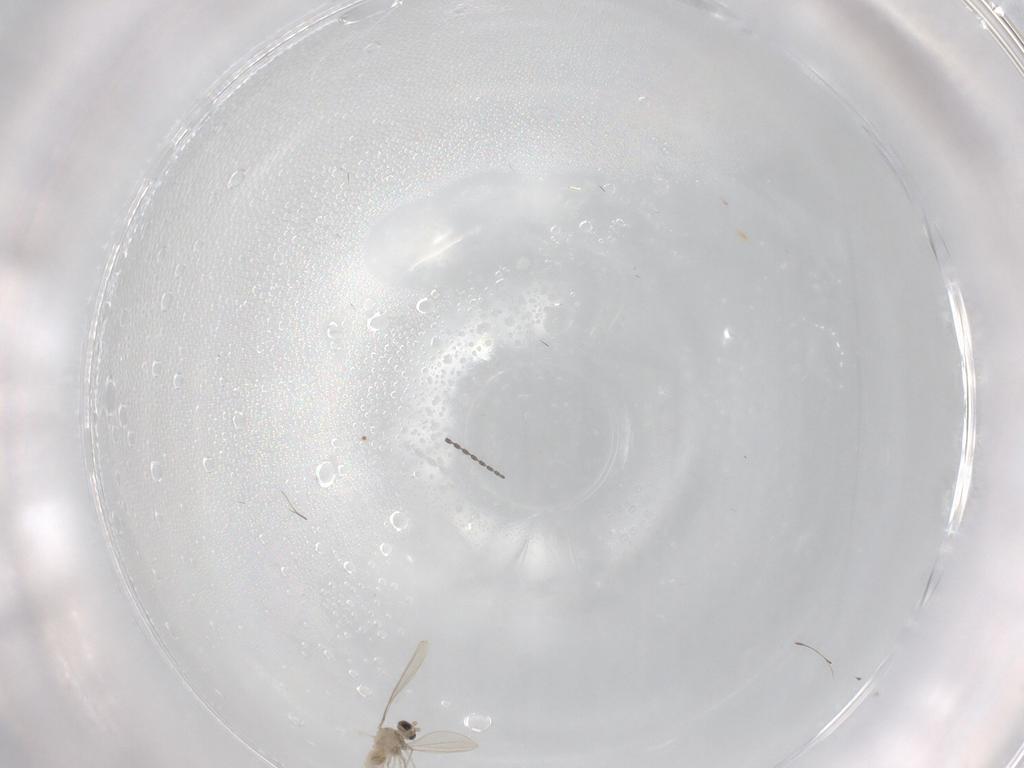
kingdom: Animalia
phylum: Arthropoda
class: Insecta
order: Diptera
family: Cecidomyiidae
